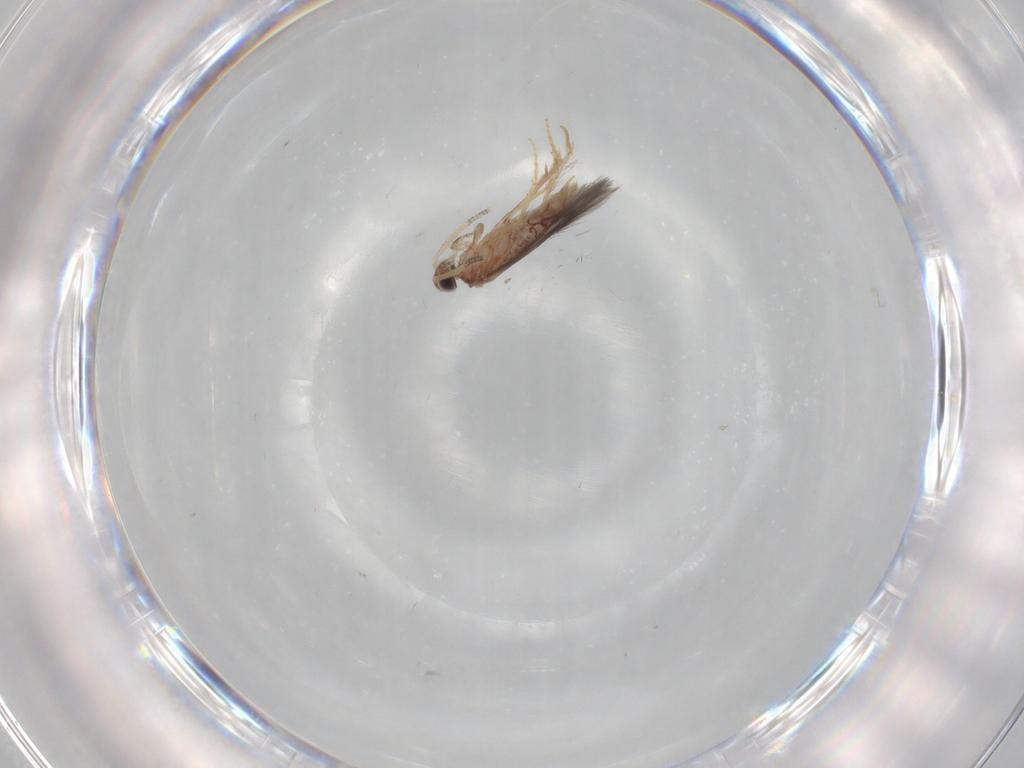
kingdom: Animalia
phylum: Arthropoda
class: Insecta
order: Trichoptera
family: Hydroptilidae
